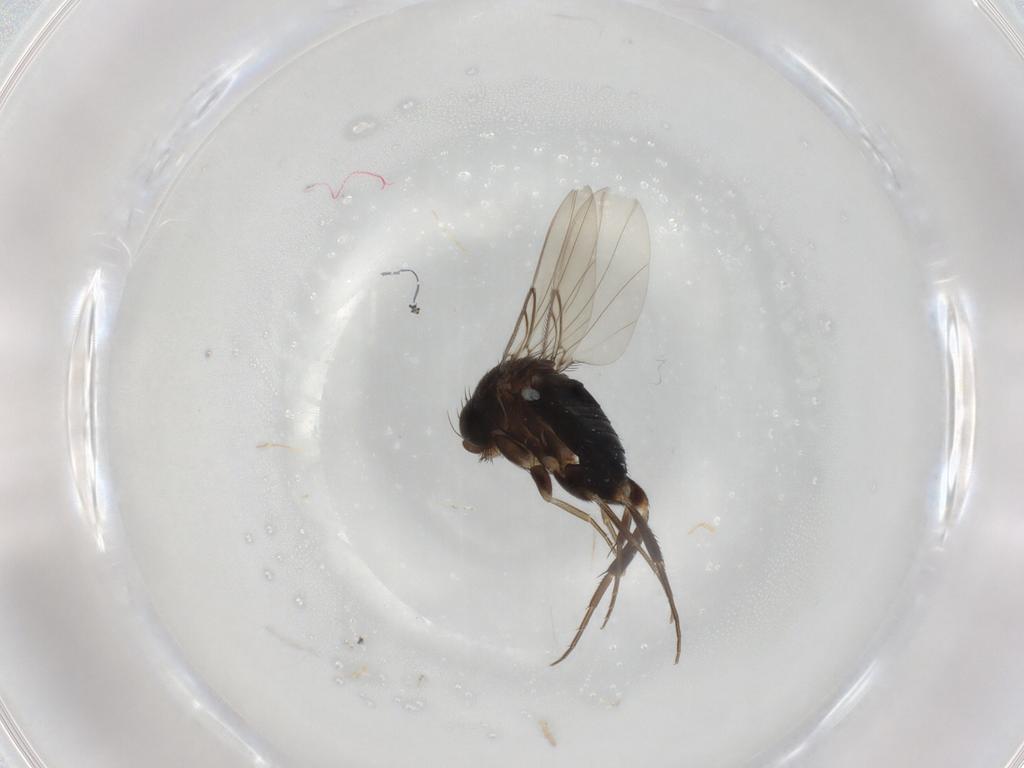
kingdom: Animalia
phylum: Arthropoda
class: Insecta
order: Diptera
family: Phoridae
